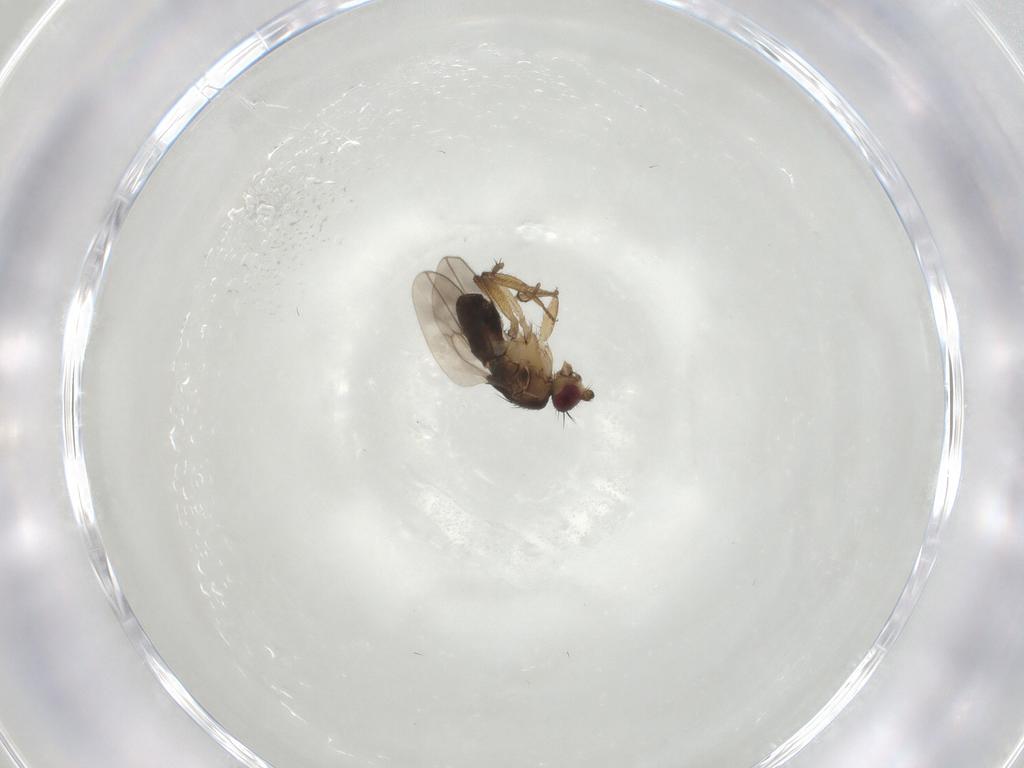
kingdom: Animalia
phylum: Arthropoda
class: Insecta
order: Diptera
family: Sphaeroceridae
